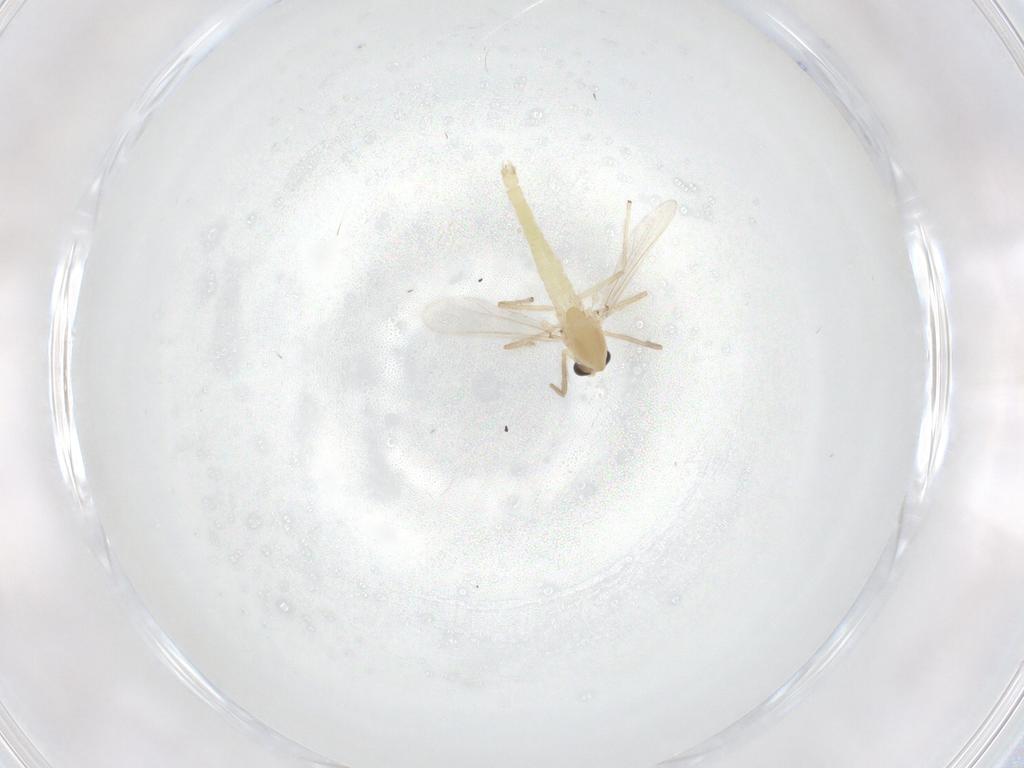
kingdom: Animalia
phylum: Arthropoda
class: Insecta
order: Diptera
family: Chironomidae
